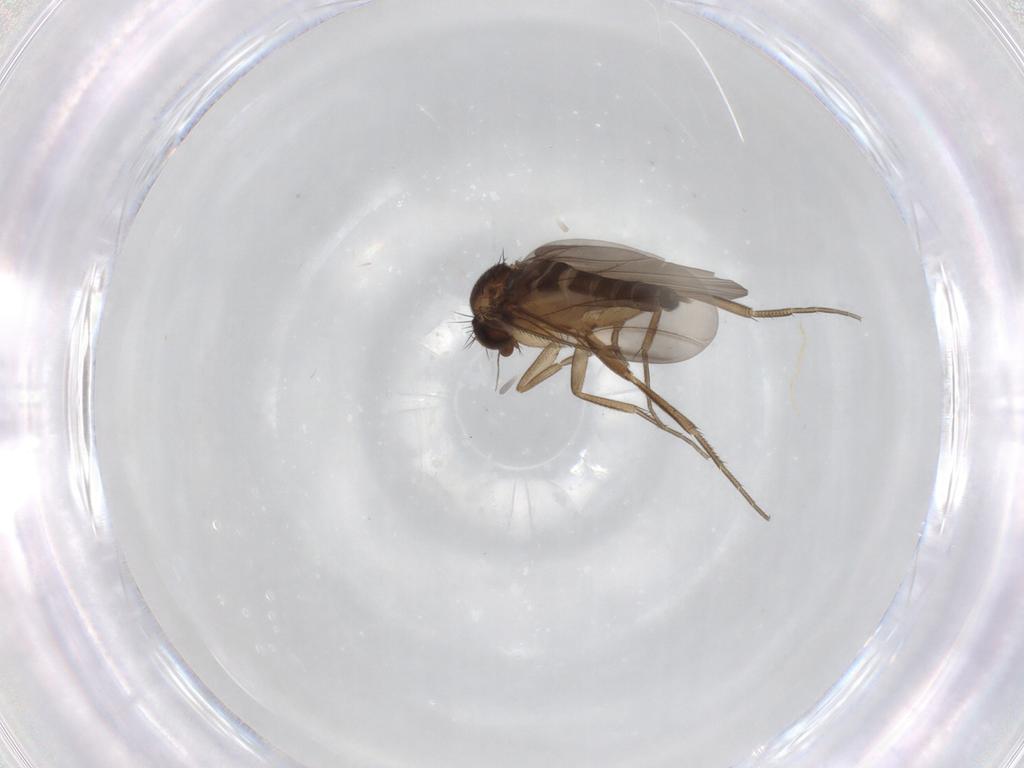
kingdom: Animalia
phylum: Arthropoda
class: Insecta
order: Diptera
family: Phoridae
